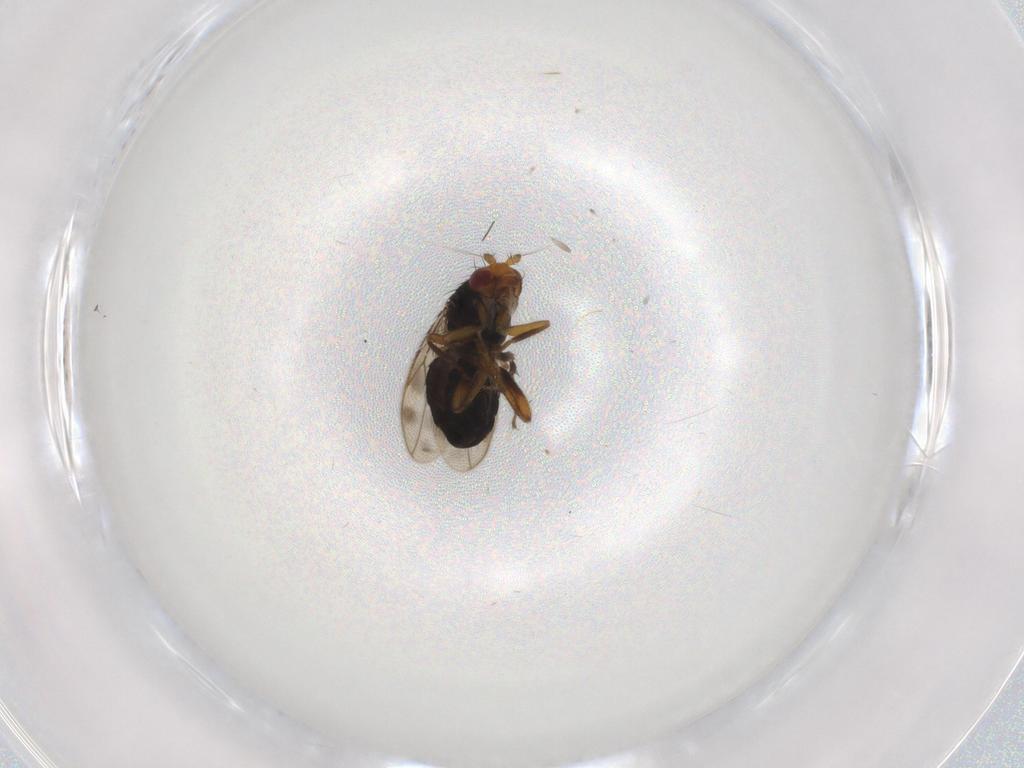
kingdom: Animalia
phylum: Arthropoda
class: Insecta
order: Diptera
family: Sphaeroceridae
